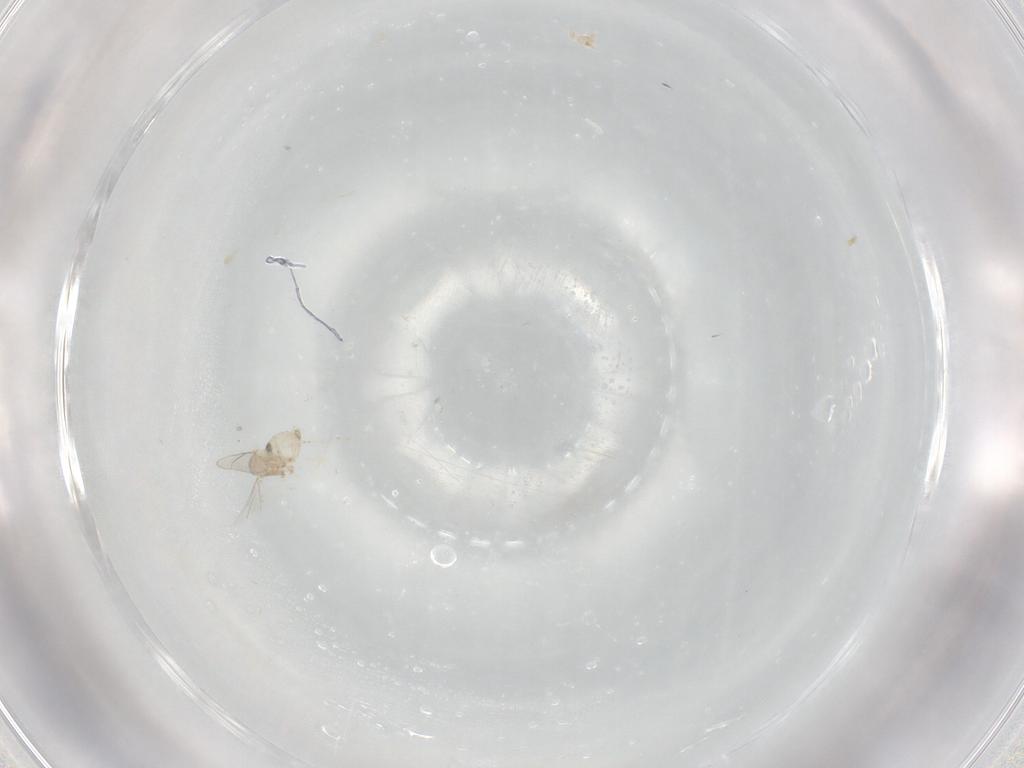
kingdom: Animalia
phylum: Arthropoda
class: Insecta
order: Diptera
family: Cecidomyiidae
